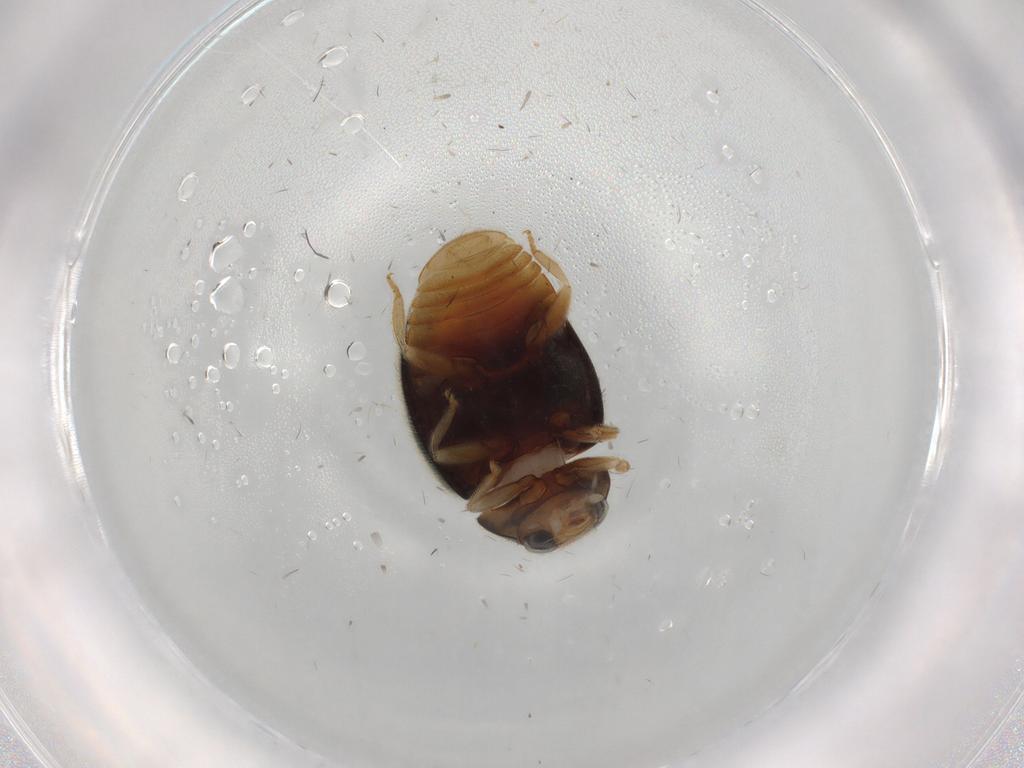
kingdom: Animalia
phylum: Arthropoda
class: Insecta
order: Coleoptera
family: Coccinellidae
